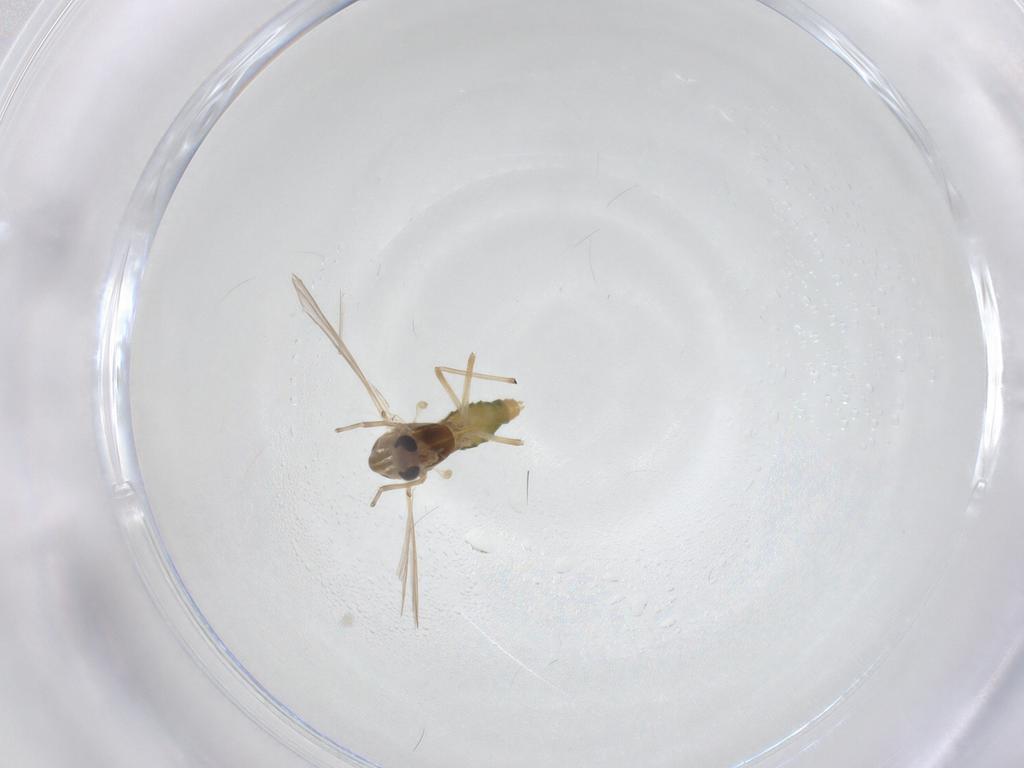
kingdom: Animalia
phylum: Arthropoda
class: Insecta
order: Diptera
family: Chironomidae
